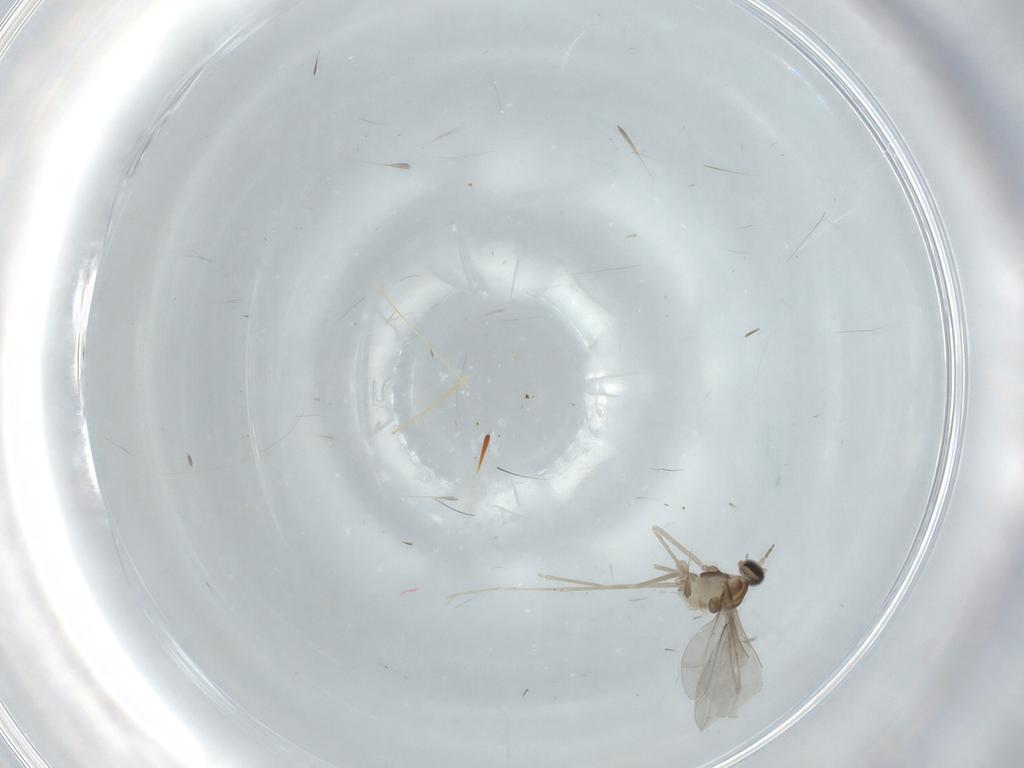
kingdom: Animalia
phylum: Arthropoda
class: Insecta
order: Diptera
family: Cecidomyiidae
